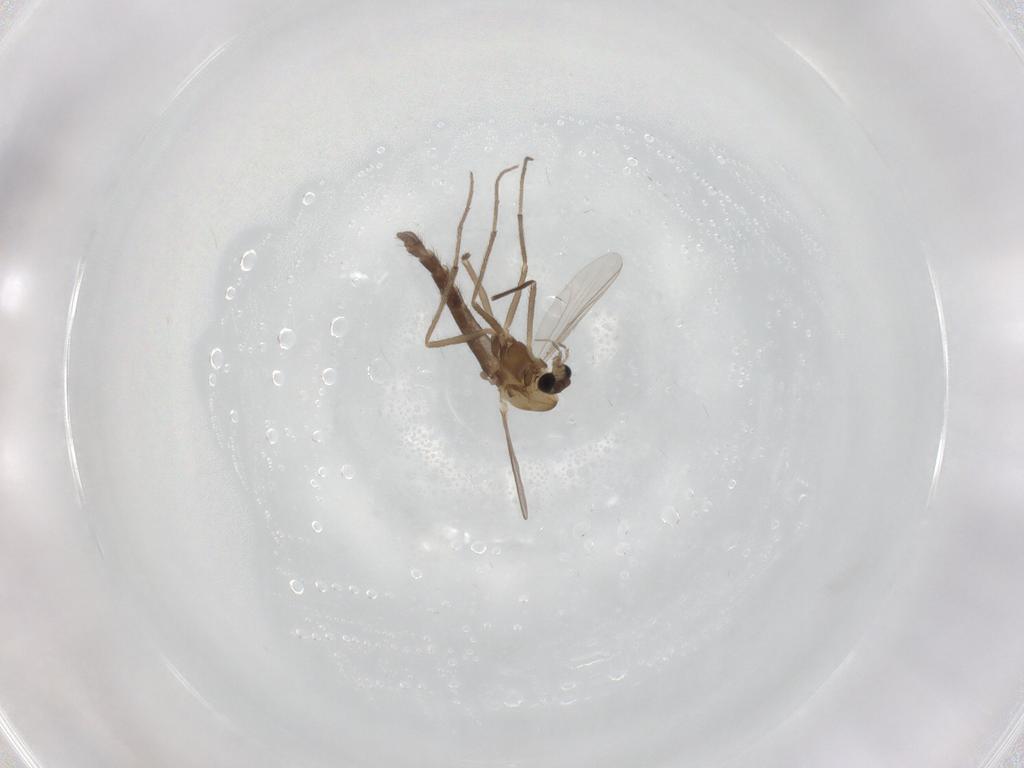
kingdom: Animalia
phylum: Arthropoda
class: Insecta
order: Diptera
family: Chironomidae
